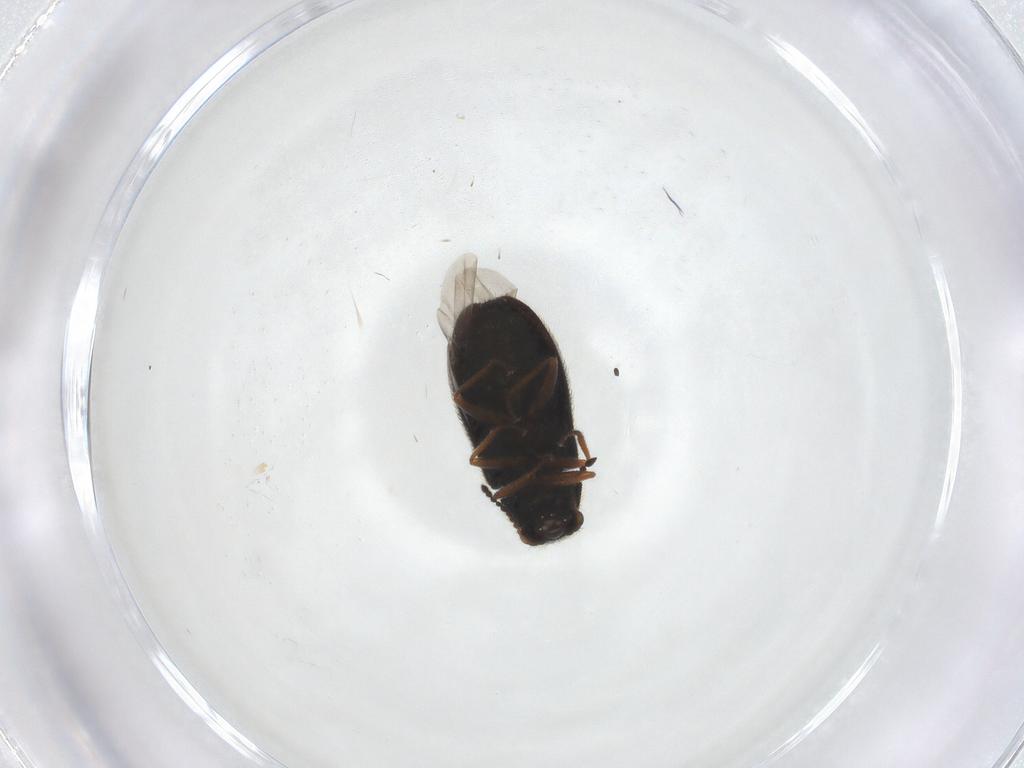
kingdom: Animalia
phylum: Arthropoda
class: Insecta
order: Coleoptera
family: Melyridae
